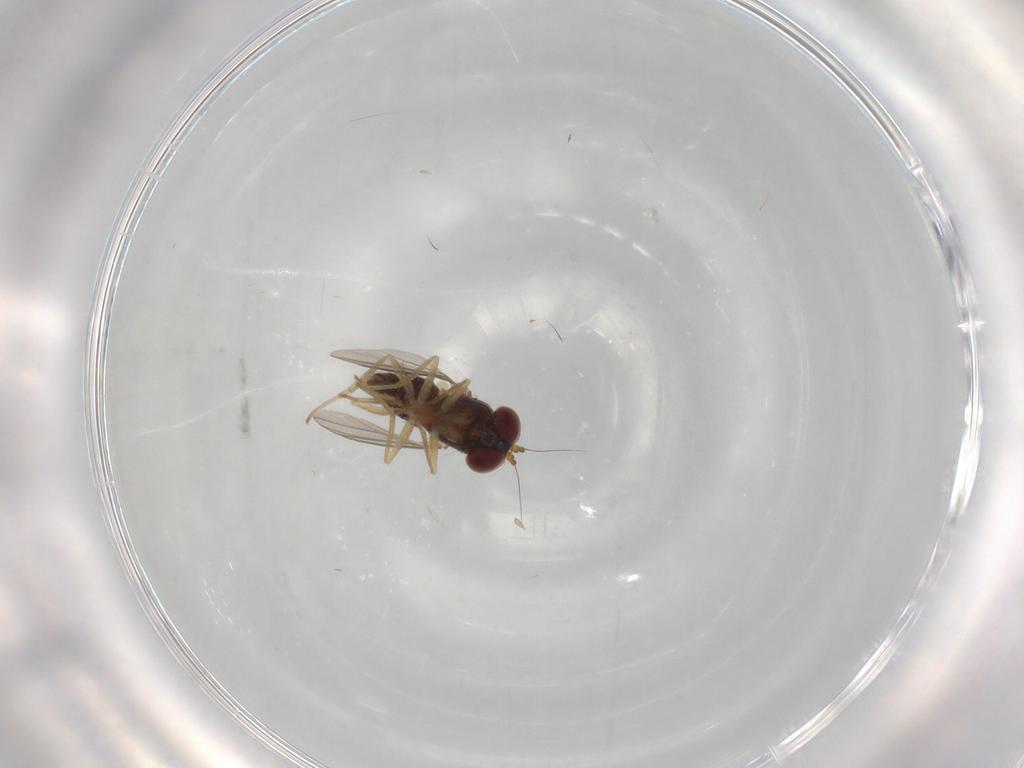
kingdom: Animalia
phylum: Arthropoda
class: Insecta
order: Diptera
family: Dolichopodidae
